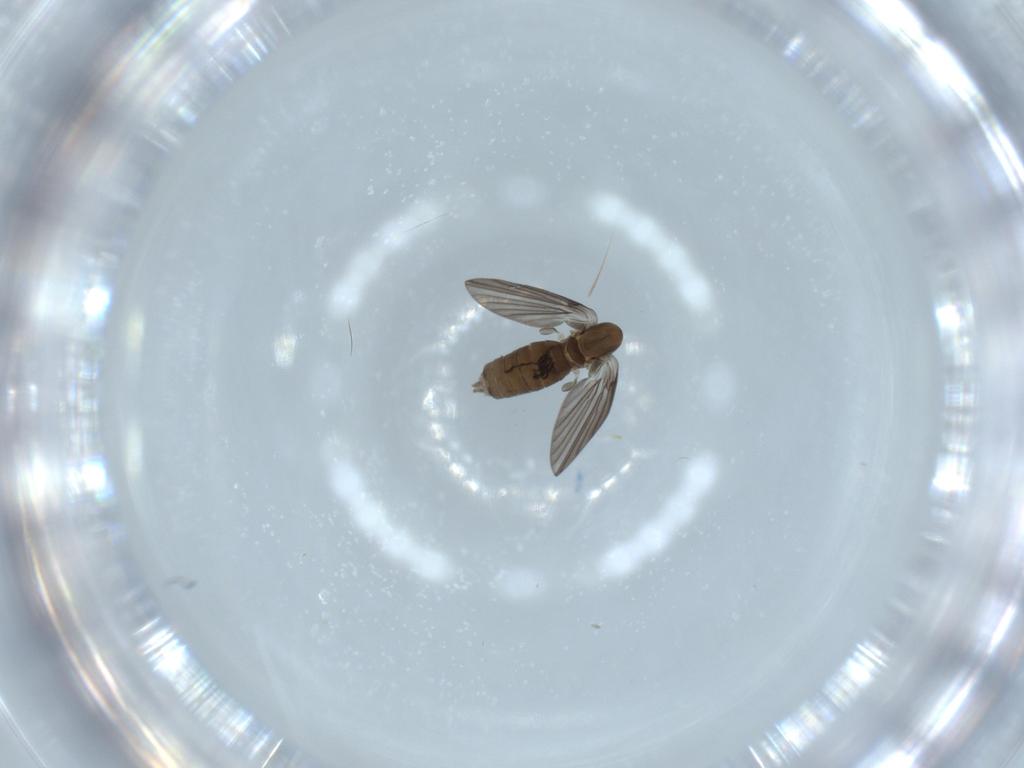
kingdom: Animalia
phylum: Arthropoda
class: Insecta
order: Diptera
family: Psychodidae
